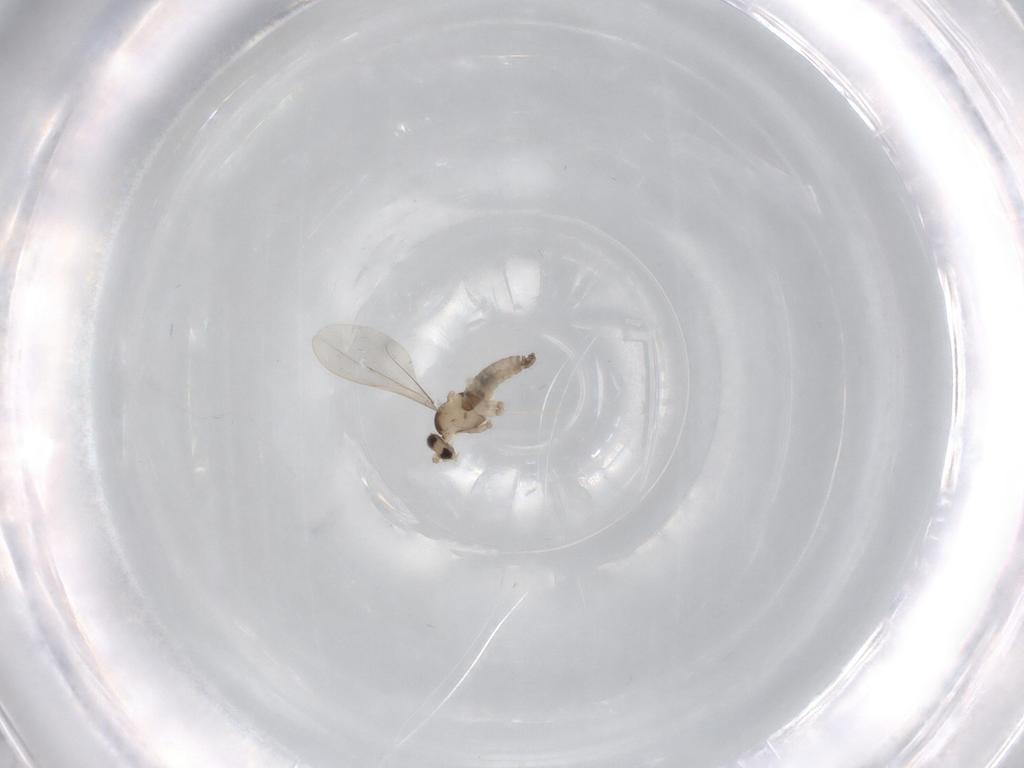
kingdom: Animalia
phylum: Arthropoda
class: Insecta
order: Diptera
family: Cecidomyiidae
